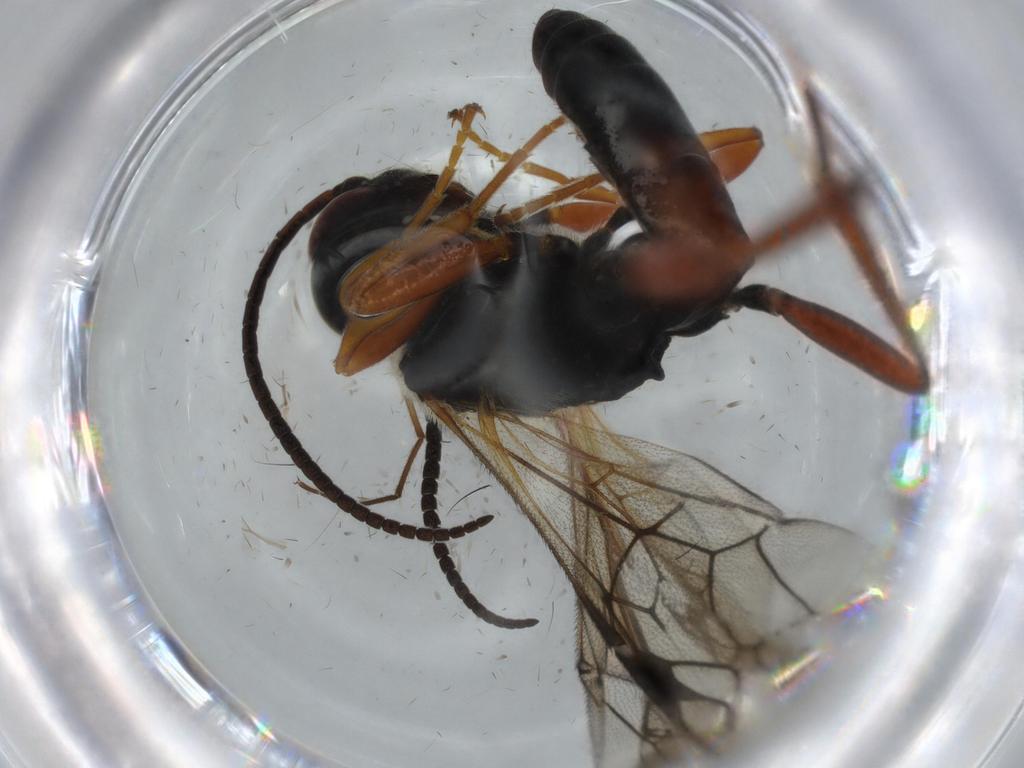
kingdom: Animalia
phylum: Arthropoda
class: Insecta
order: Hymenoptera
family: Ichneumonidae
